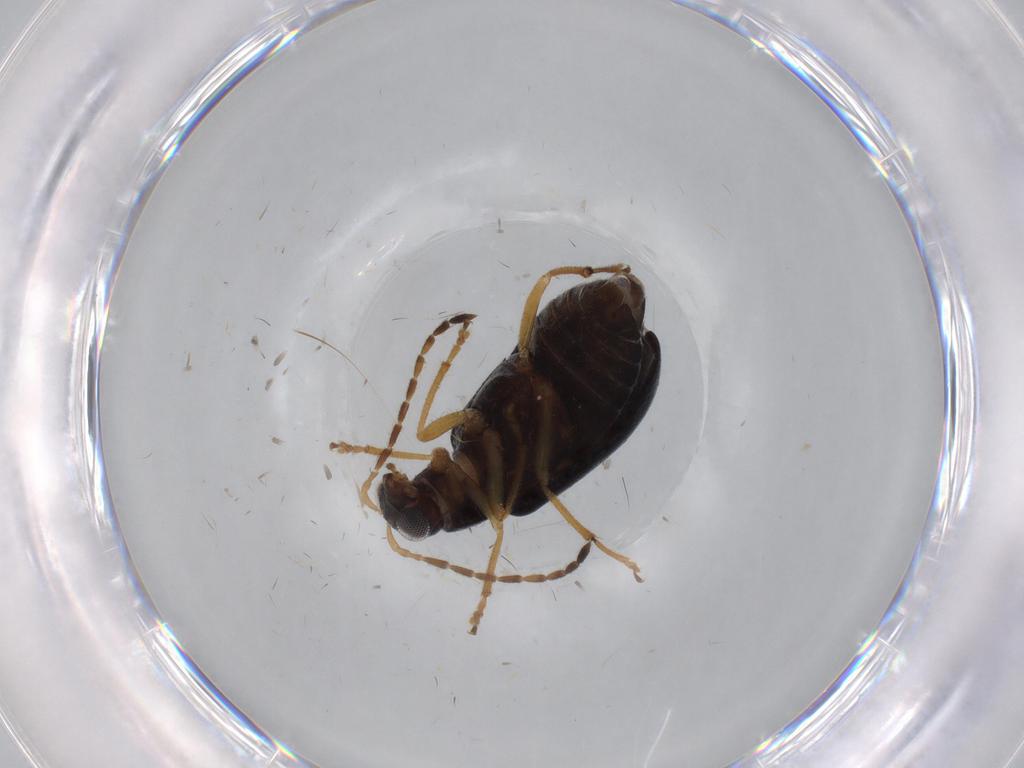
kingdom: Animalia
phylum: Arthropoda
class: Insecta
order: Coleoptera
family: Chrysomelidae
